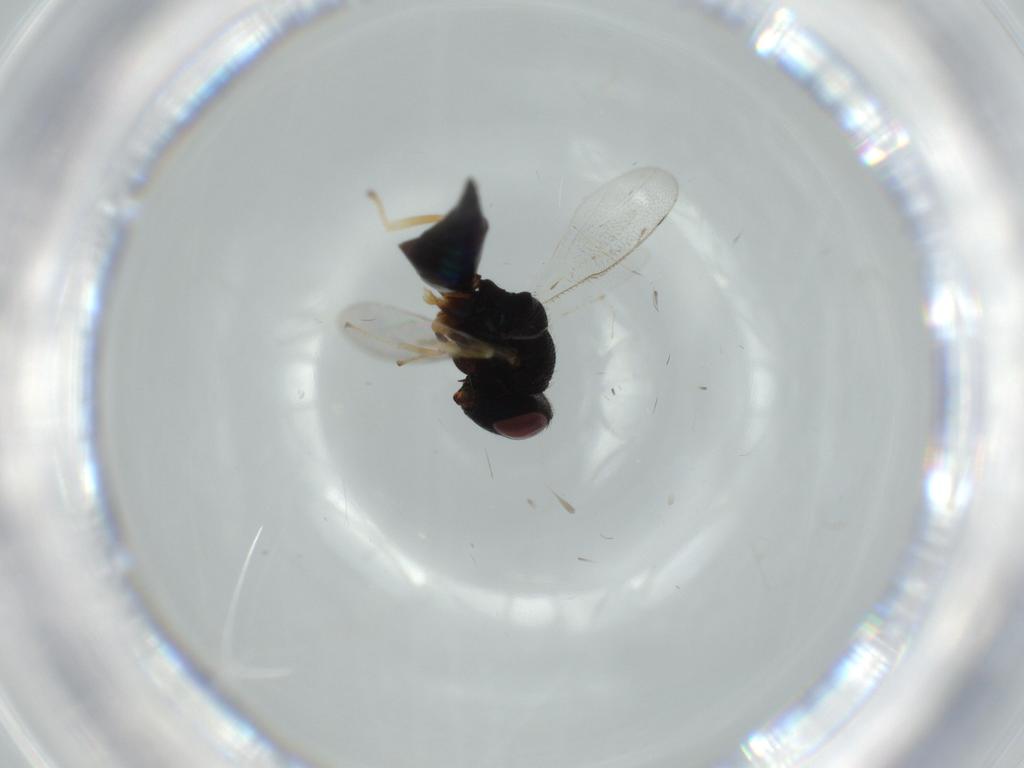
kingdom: Animalia
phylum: Arthropoda
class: Insecta
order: Hymenoptera
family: Pteromalidae
